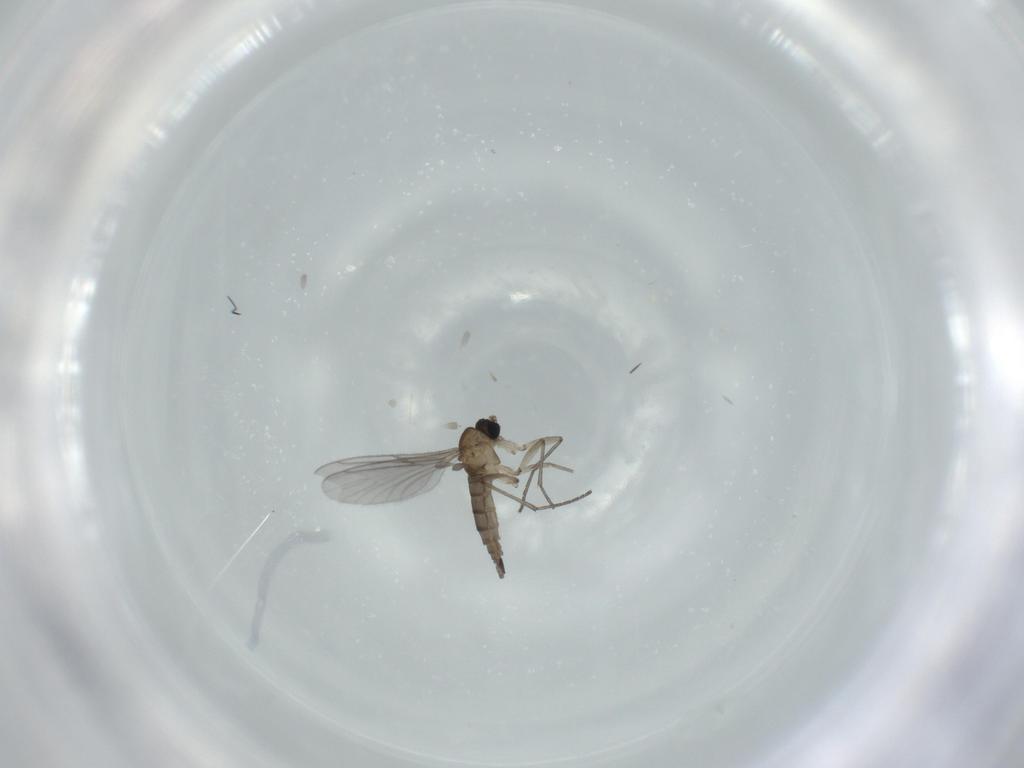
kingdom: Animalia
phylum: Arthropoda
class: Insecta
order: Diptera
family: Sciaridae
